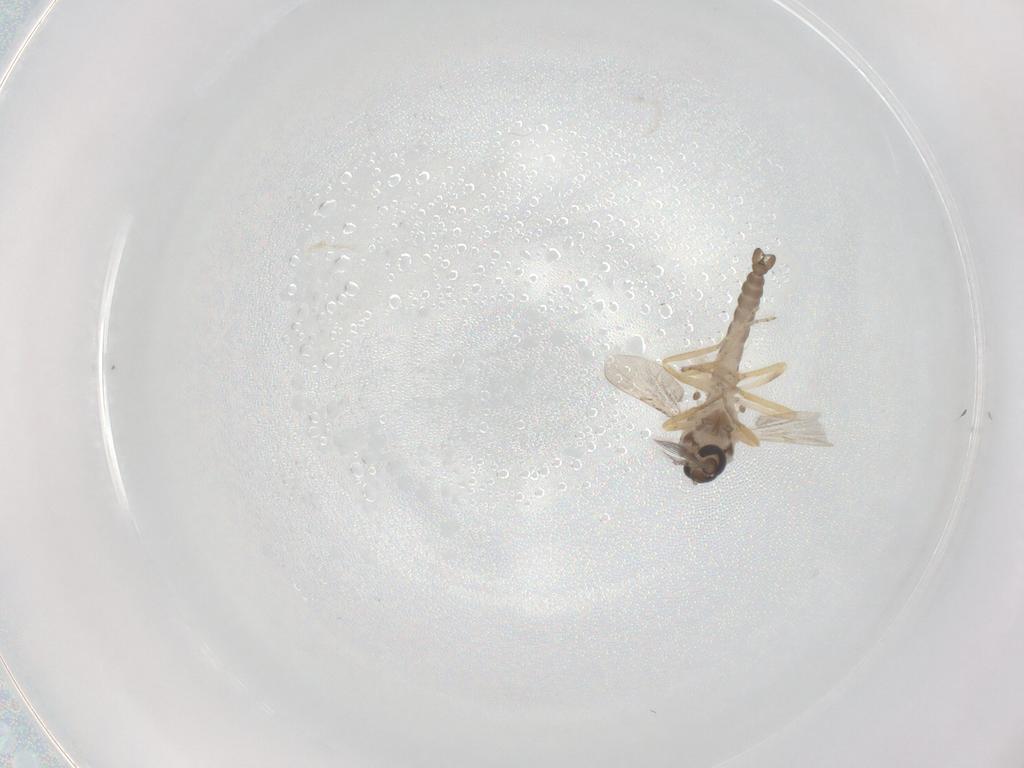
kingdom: Animalia
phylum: Arthropoda
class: Insecta
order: Diptera
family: Ceratopogonidae
